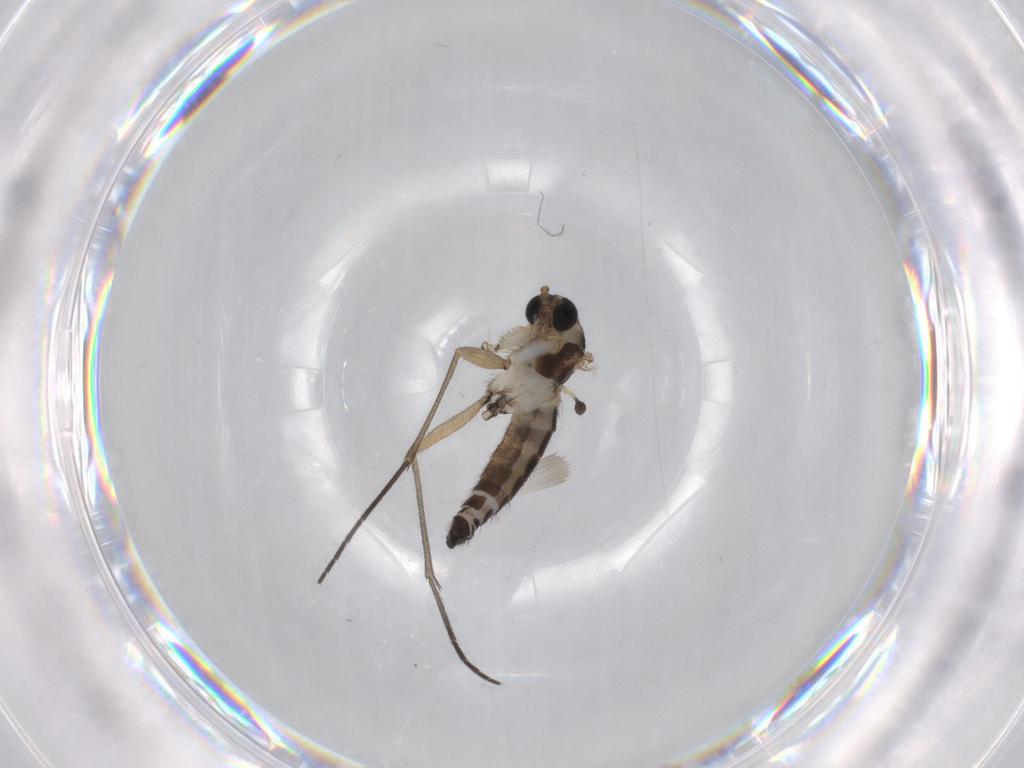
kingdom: Animalia
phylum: Arthropoda
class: Insecta
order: Diptera
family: Sciaridae
